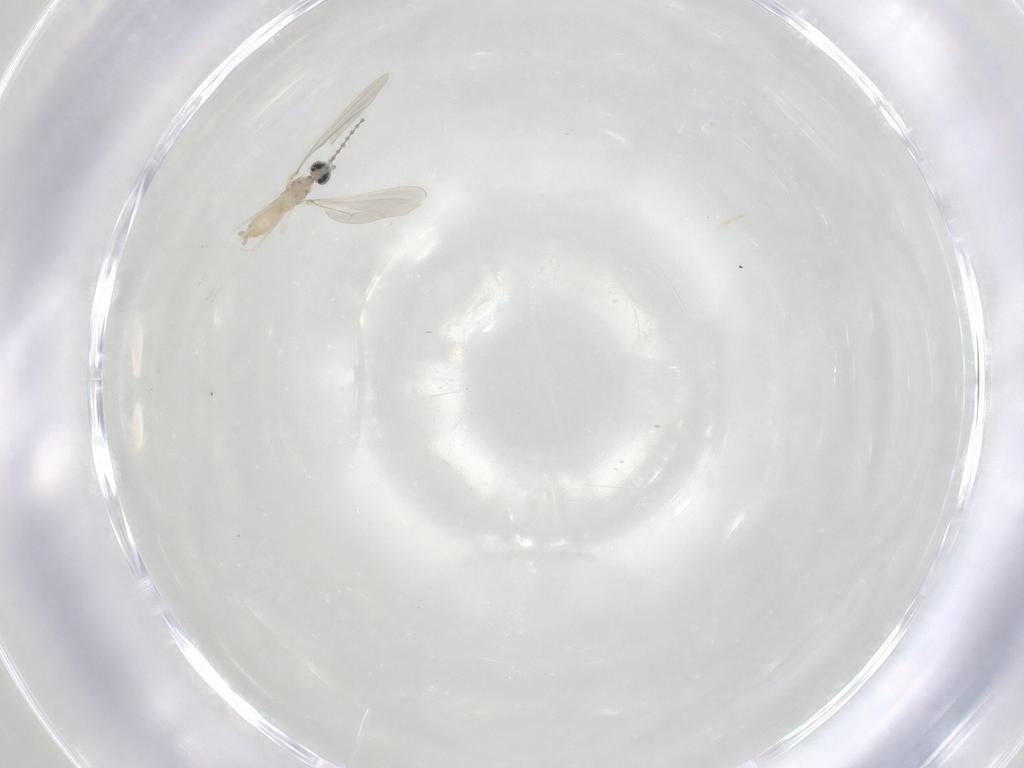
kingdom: Animalia
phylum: Arthropoda
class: Insecta
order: Diptera
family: Cecidomyiidae
